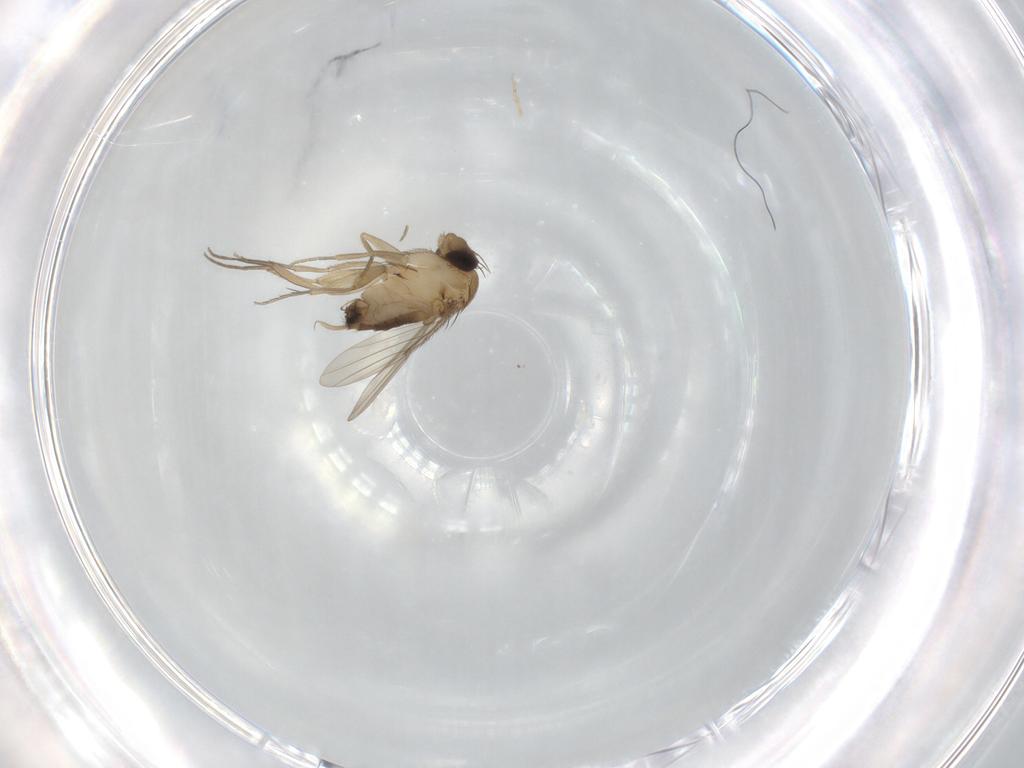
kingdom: Animalia
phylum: Arthropoda
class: Insecta
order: Diptera
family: Phoridae
